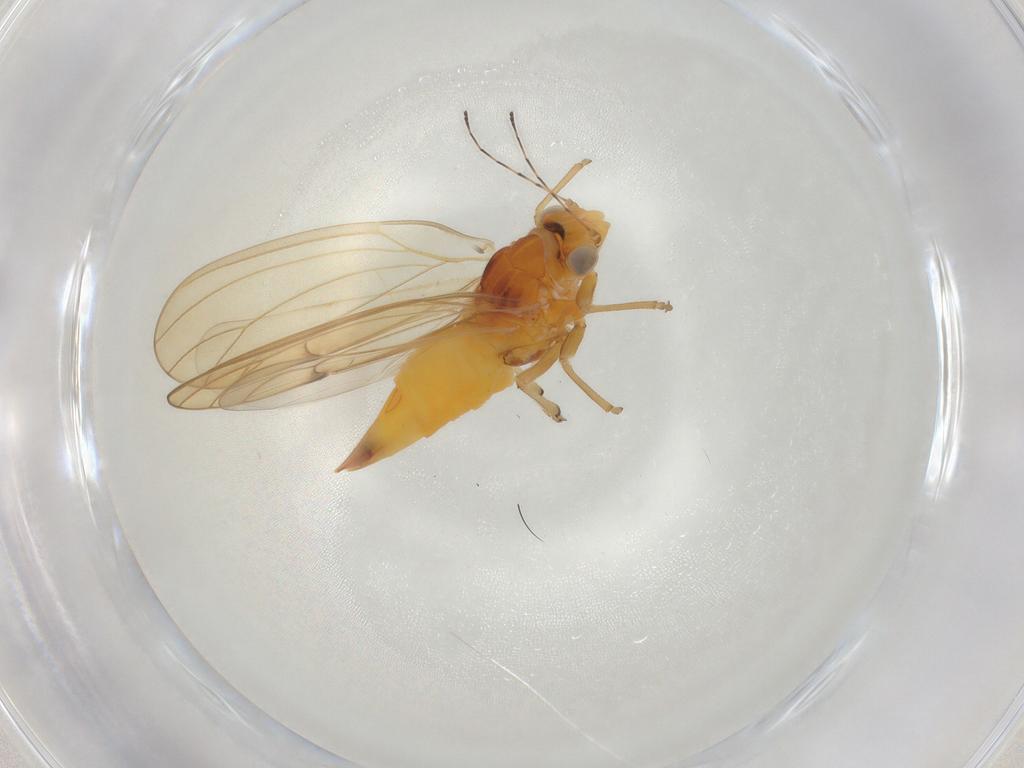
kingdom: Animalia
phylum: Arthropoda
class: Insecta
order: Hemiptera
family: Psylloidea_incertae_sedis
